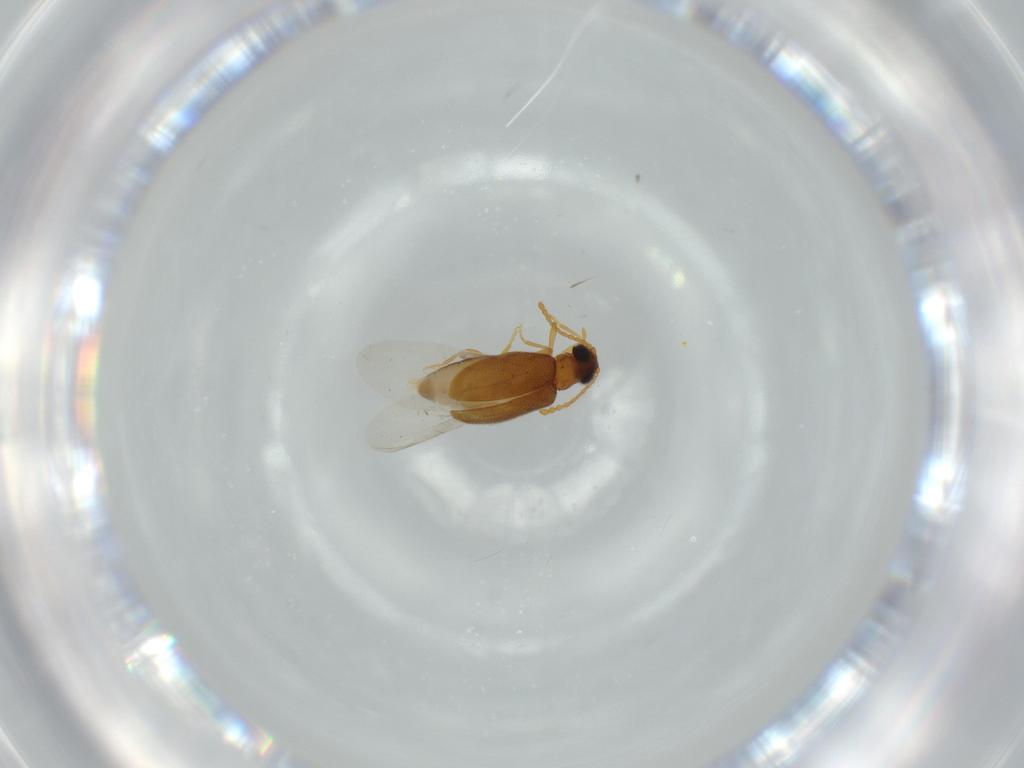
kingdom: Animalia
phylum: Arthropoda
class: Insecta
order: Coleoptera
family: Aderidae
